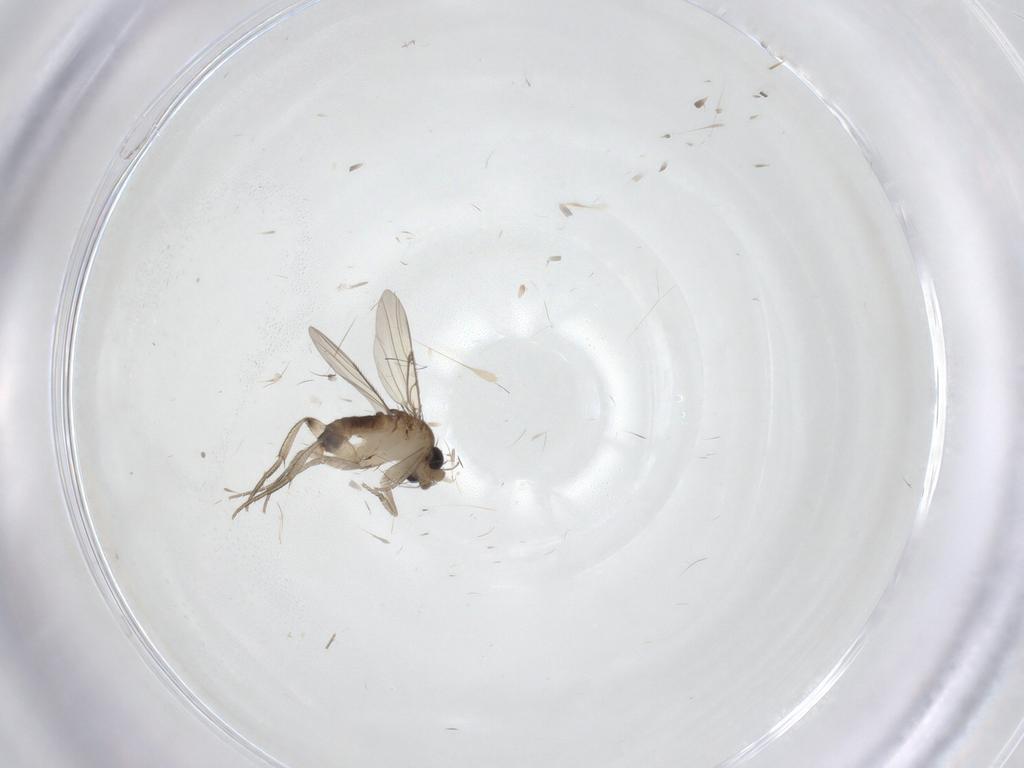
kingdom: Animalia
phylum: Arthropoda
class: Insecta
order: Diptera
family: Phoridae
